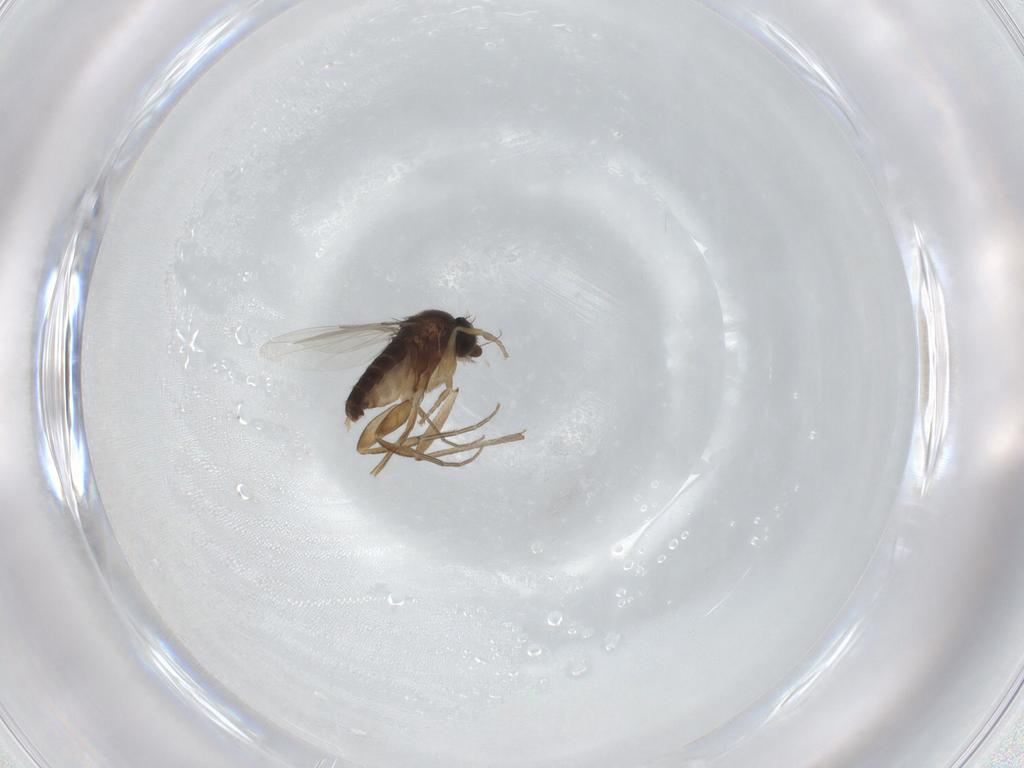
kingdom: Animalia
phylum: Arthropoda
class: Insecta
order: Diptera
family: Phoridae
